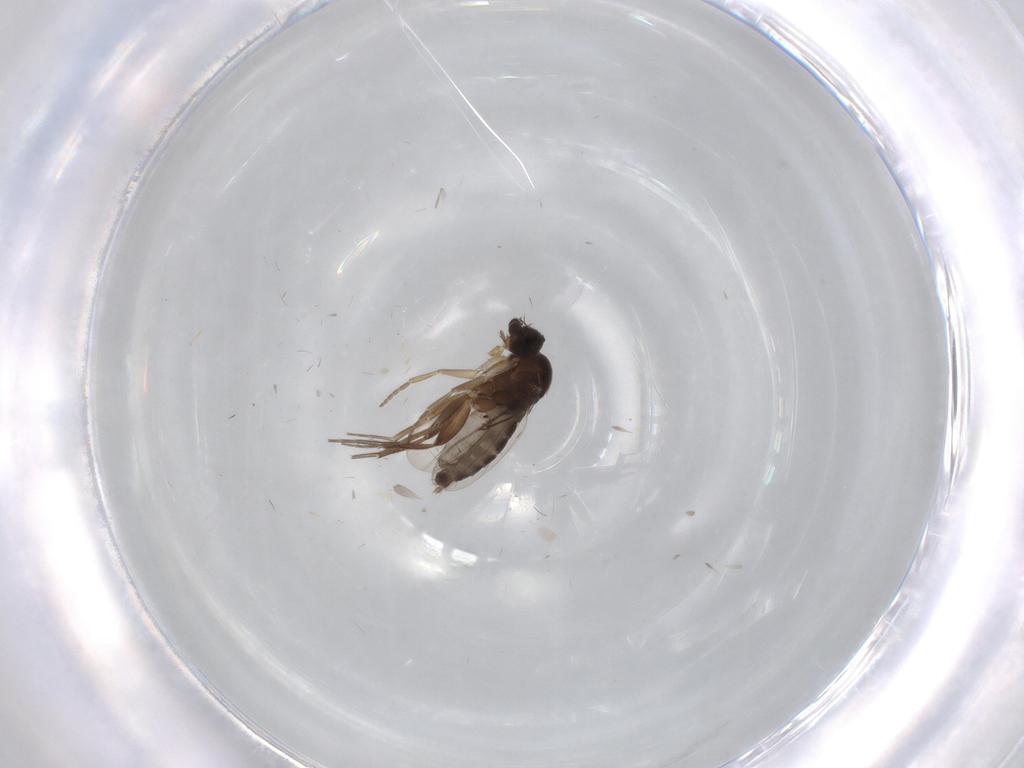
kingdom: Animalia
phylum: Arthropoda
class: Insecta
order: Diptera
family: Phoridae
